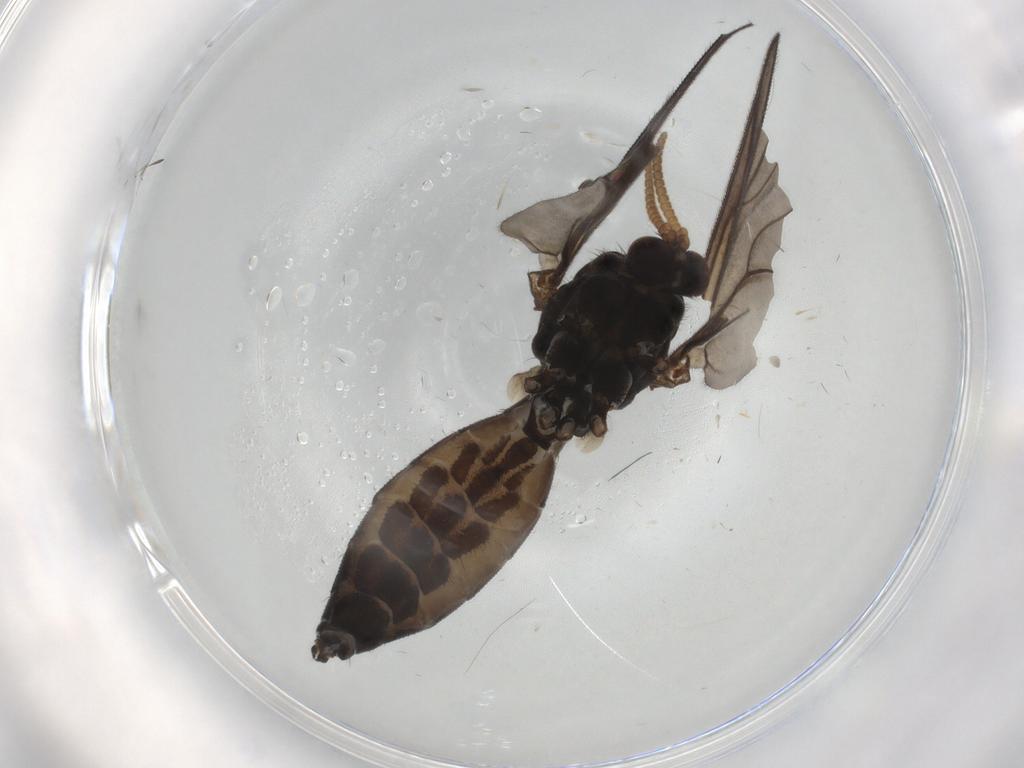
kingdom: Animalia
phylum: Arthropoda
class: Insecta
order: Diptera
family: Mycetophilidae
